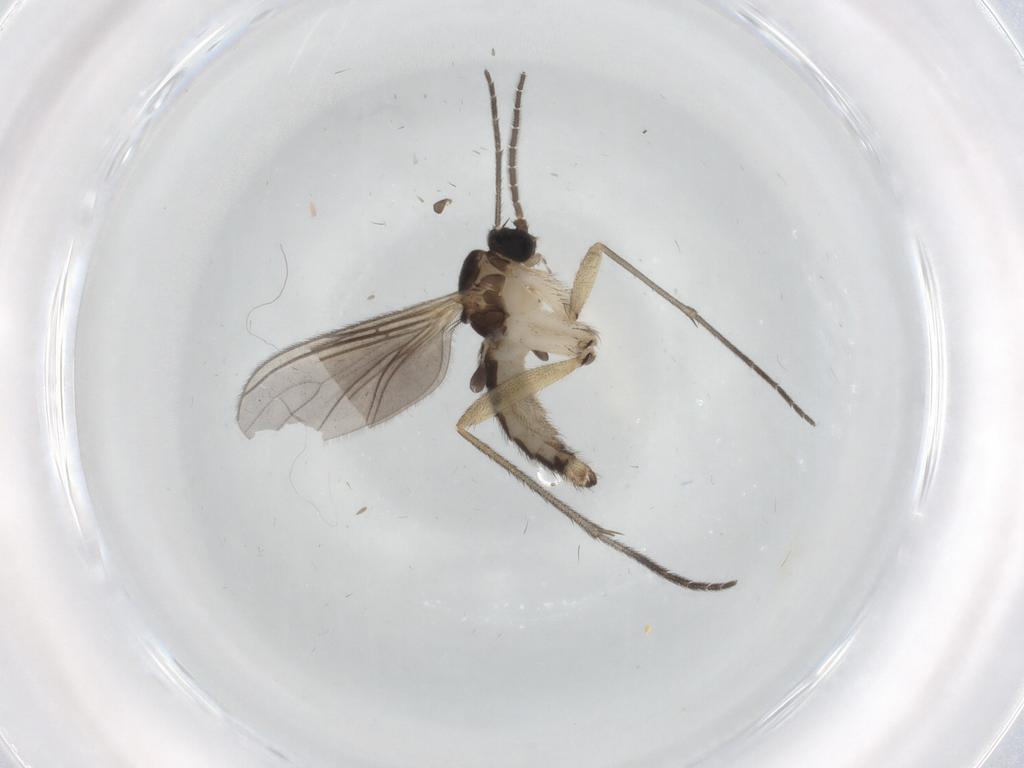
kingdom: Animalia
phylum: Arthropoda
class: Insecta
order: Diptera
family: Sciaridae
